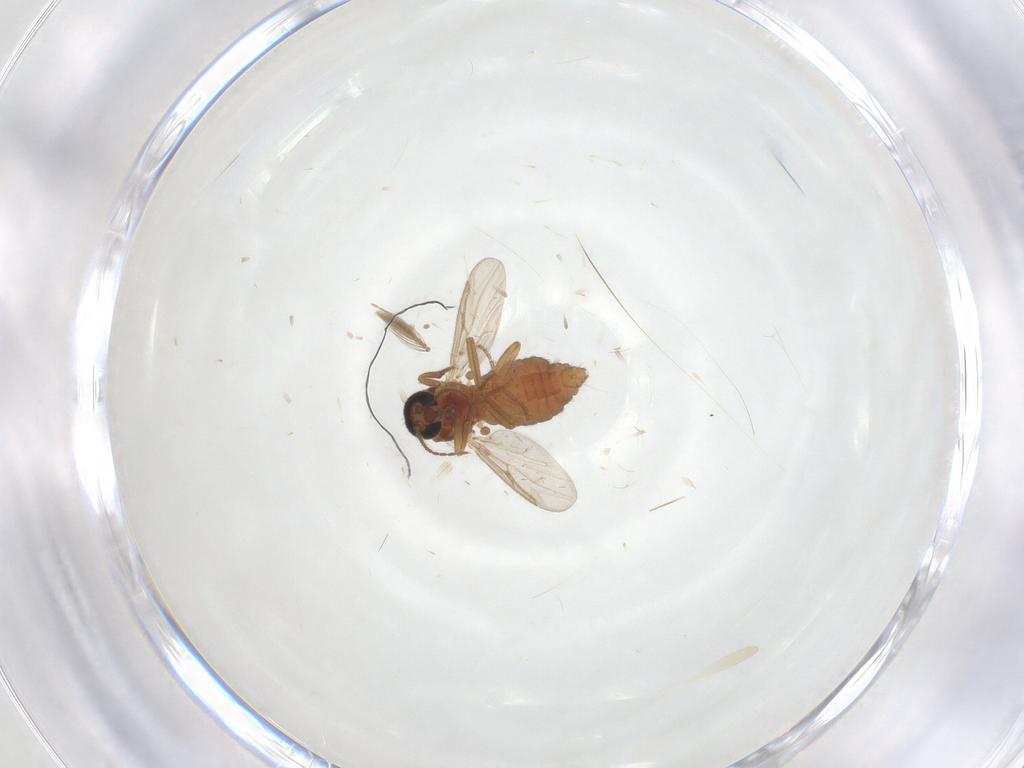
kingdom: Animalia
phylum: Arthropoda
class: Insecta
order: Diptera
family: Phoridae
